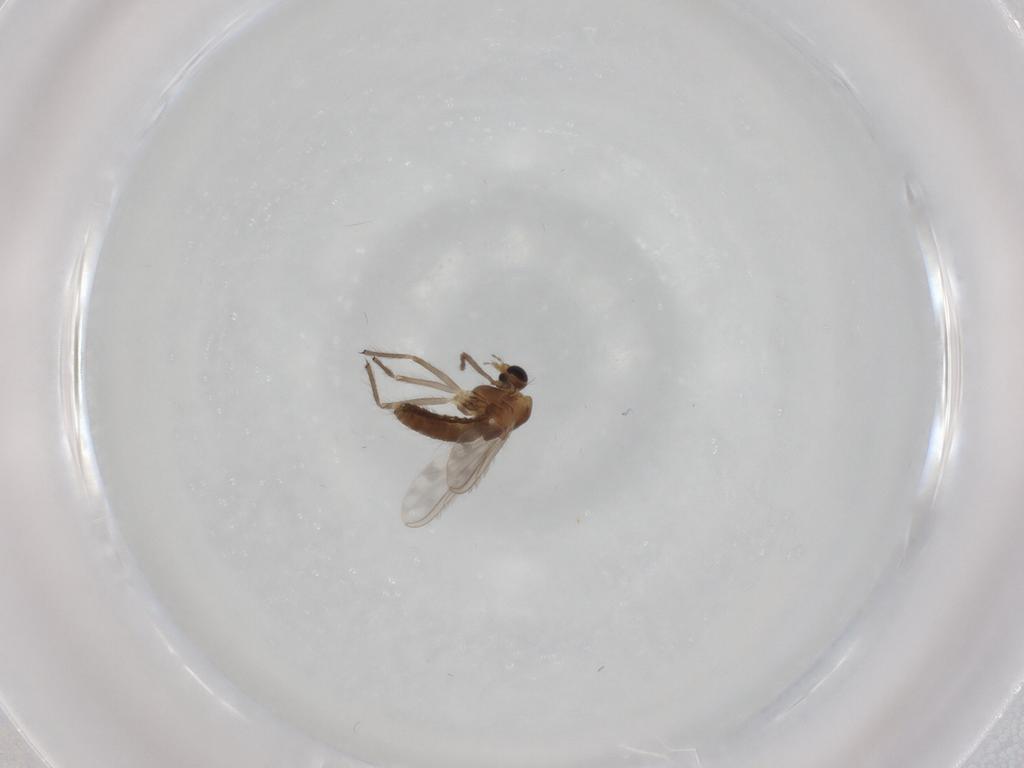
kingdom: Animalia
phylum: Arthropoda
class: Insecta
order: Diptera
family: Chironomidae
